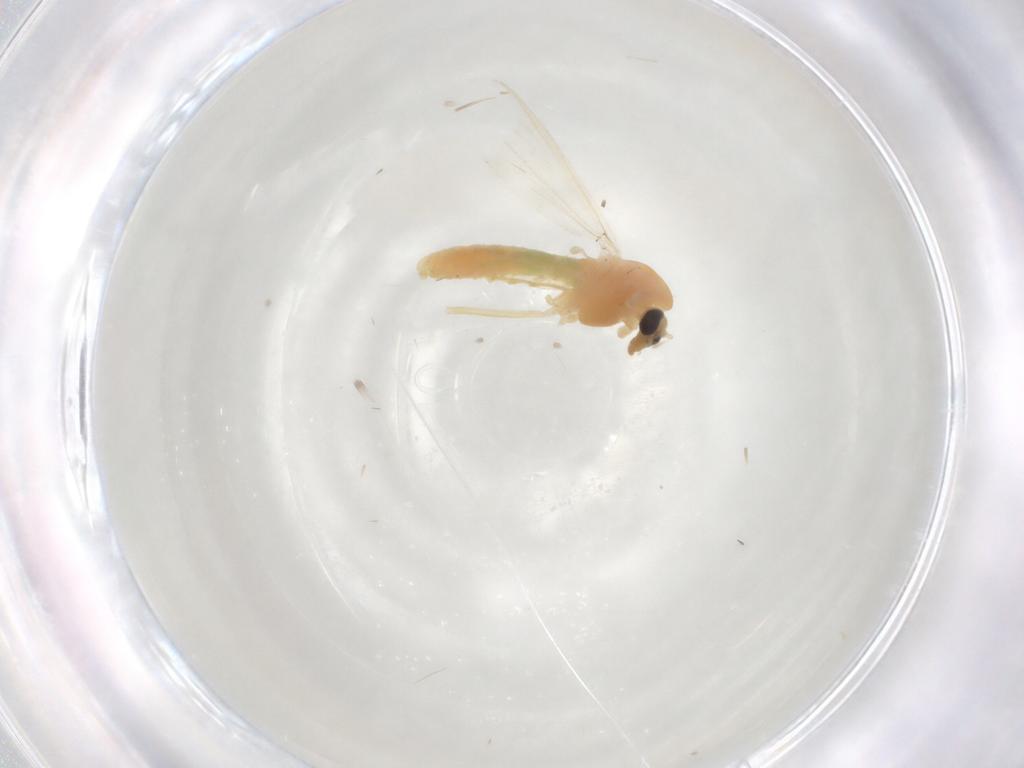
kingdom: Animalia
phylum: Arthropoda
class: Insecta
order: Diptera
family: Chironomidae
